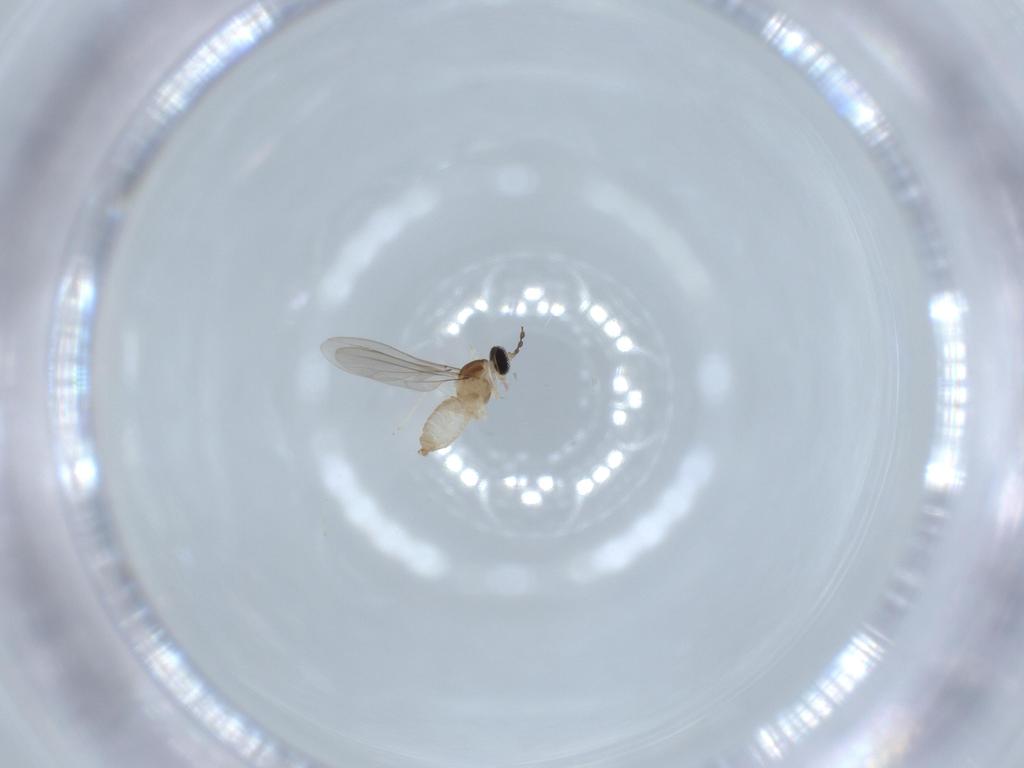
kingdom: Animalia
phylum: Arthropoda
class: Insecta
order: Diptera
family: Cecidomyiidae
